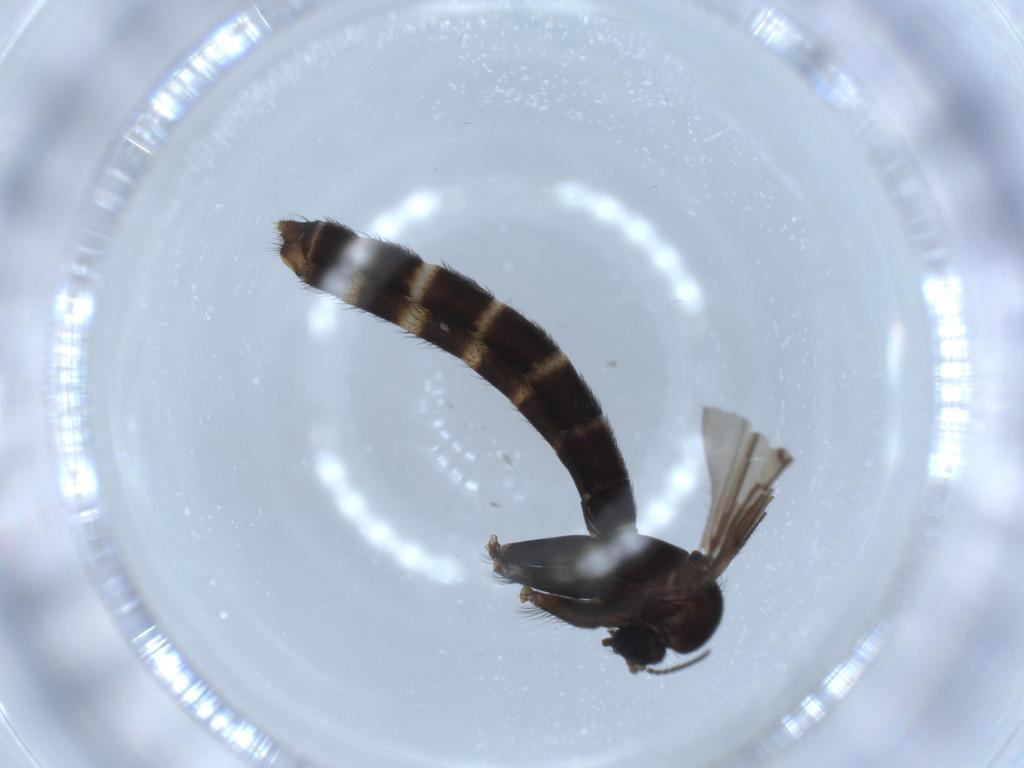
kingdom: Animalia
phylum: Arthropoda
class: Insecta
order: Diptera
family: Ditomyiidae
